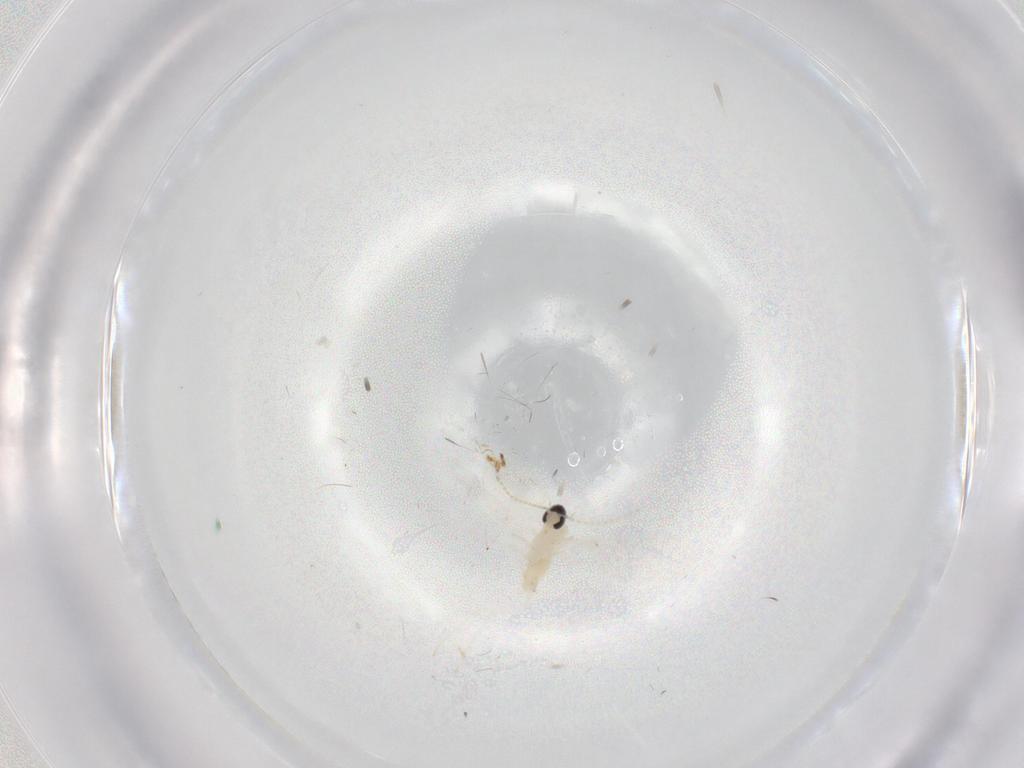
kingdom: Animalia
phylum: Arthropoda
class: Insecta
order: Diptera
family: Cecidomyiidae
